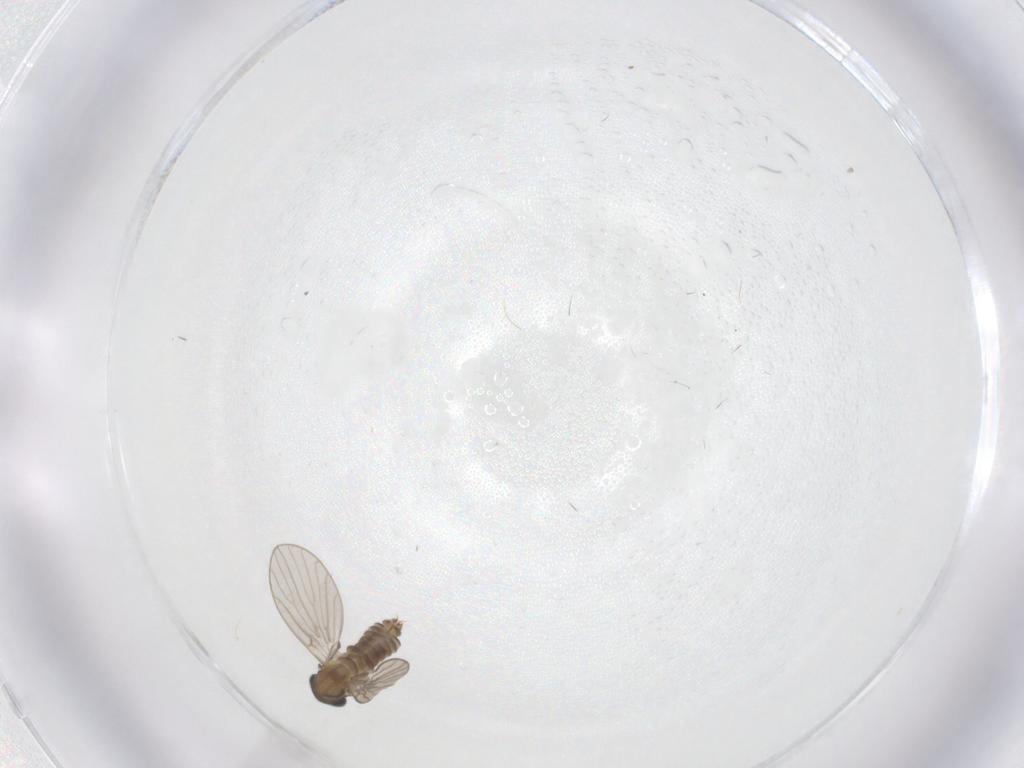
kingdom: Animalia
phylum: Arthropoda
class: Insecta
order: Diptera
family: Psychodidae
